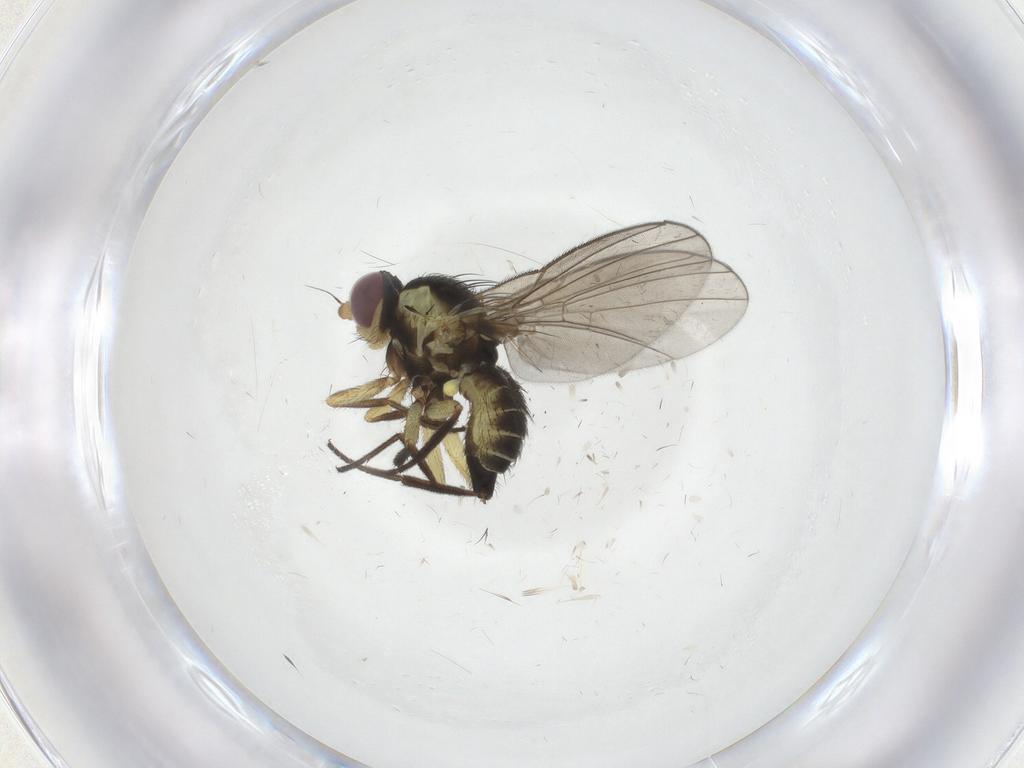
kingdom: Animalia
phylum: Arthropoda
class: Insecta
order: Diptera
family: Agromyzidae
